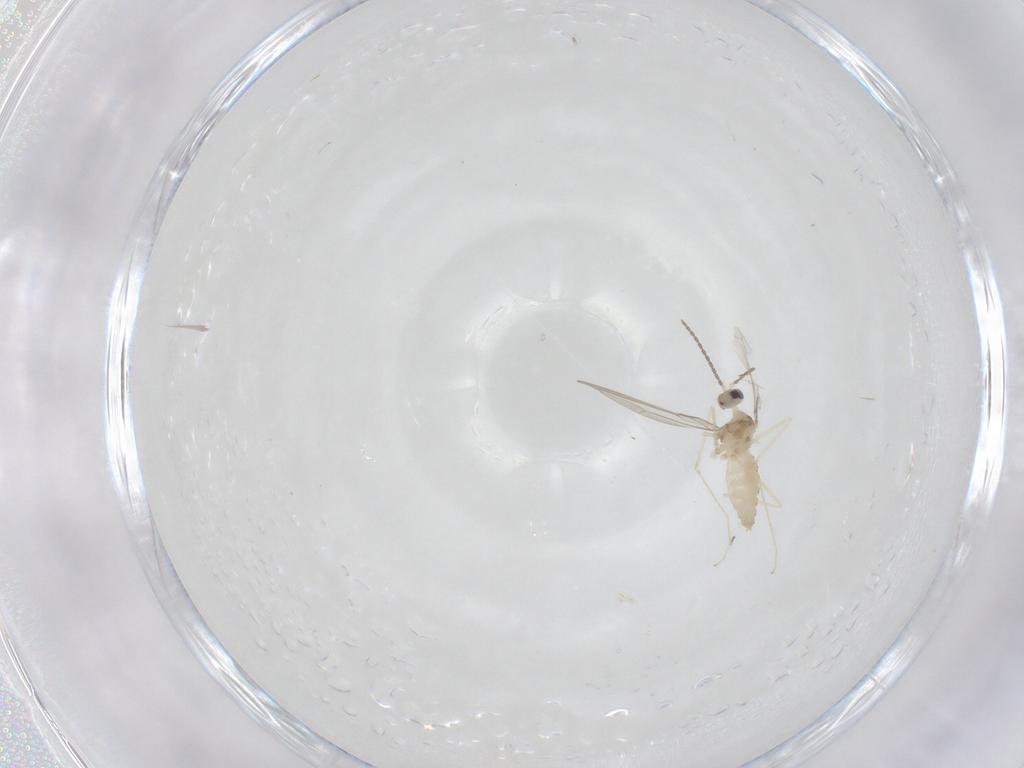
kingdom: Animalia
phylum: Arthropoda
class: Insecta
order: Diptera
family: Cecidomyiidae
